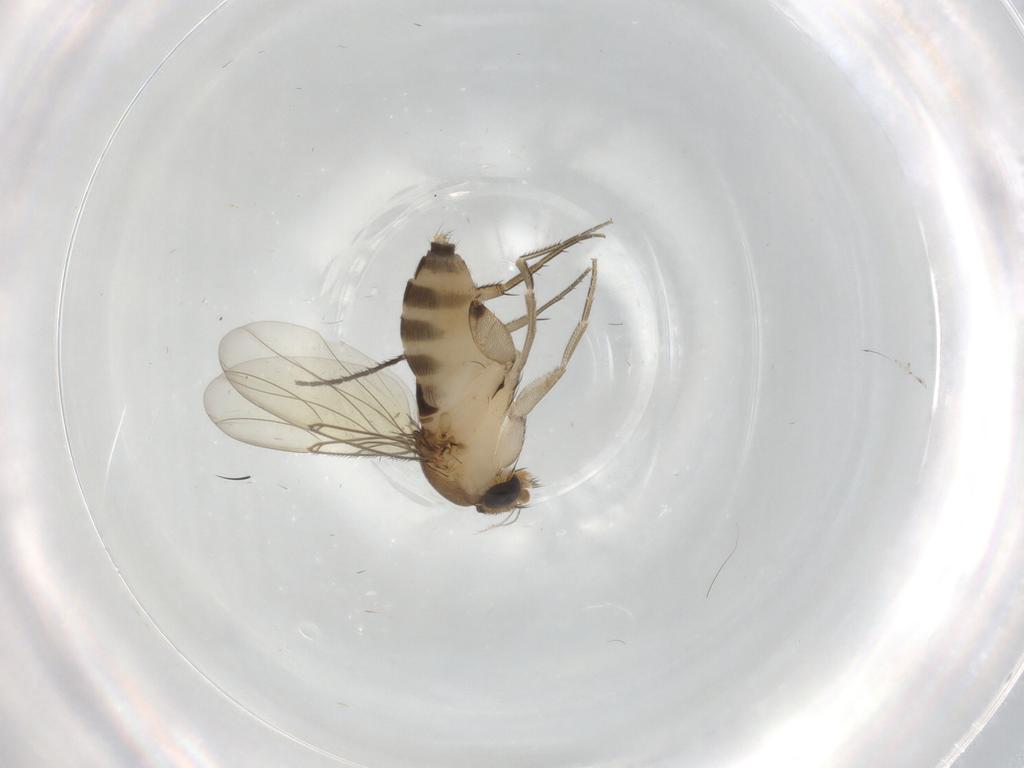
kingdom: Animalia
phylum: Arthropoda
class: Insecta
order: Diptera
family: Phoridae
